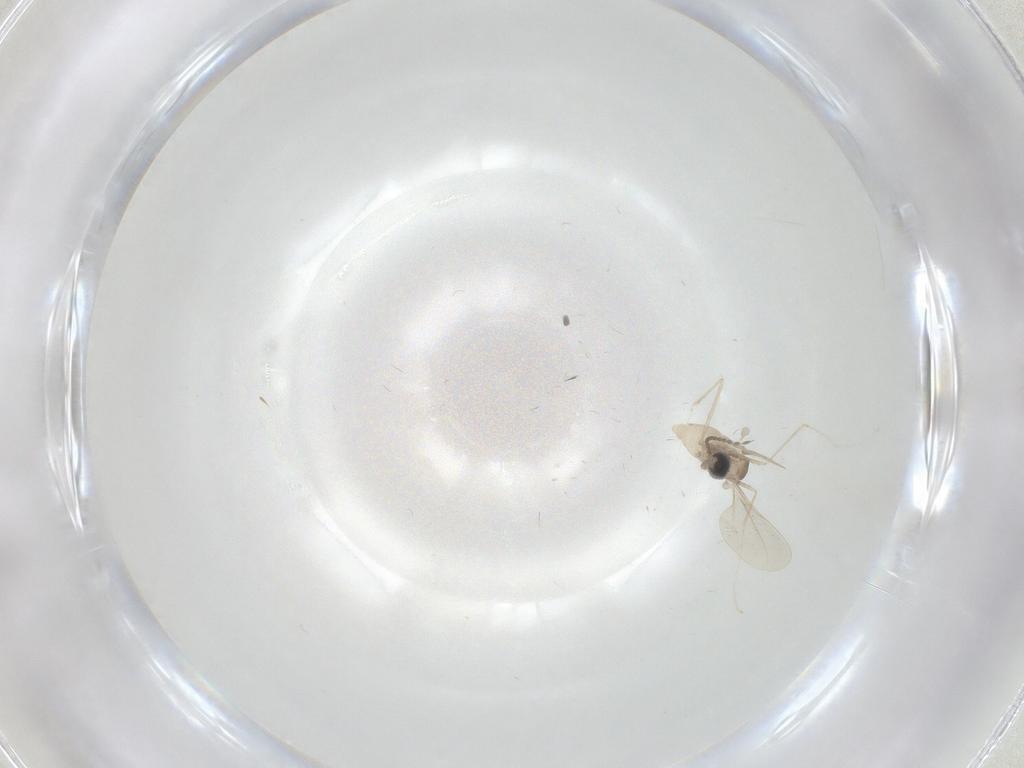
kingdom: Animalia
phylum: Arthropoda
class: Insecta
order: Diptera
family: Cecidomyiidae
